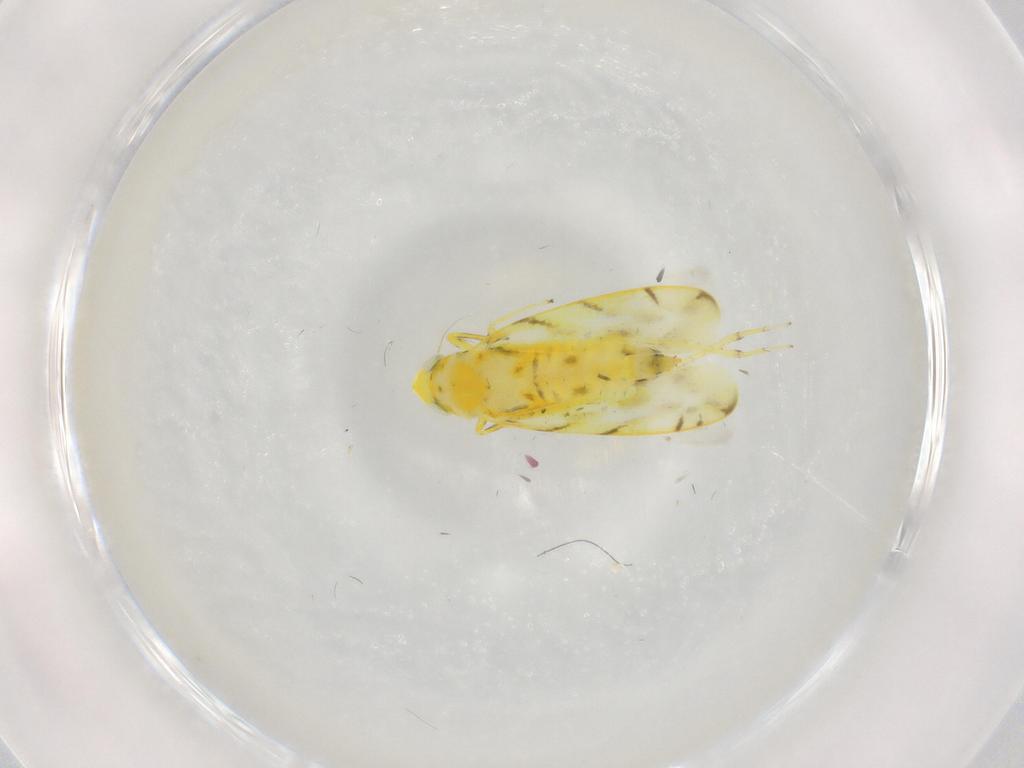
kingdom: Animalia
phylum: Arthropoda
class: Insecta
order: Hemiptera
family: Cicadellidae
